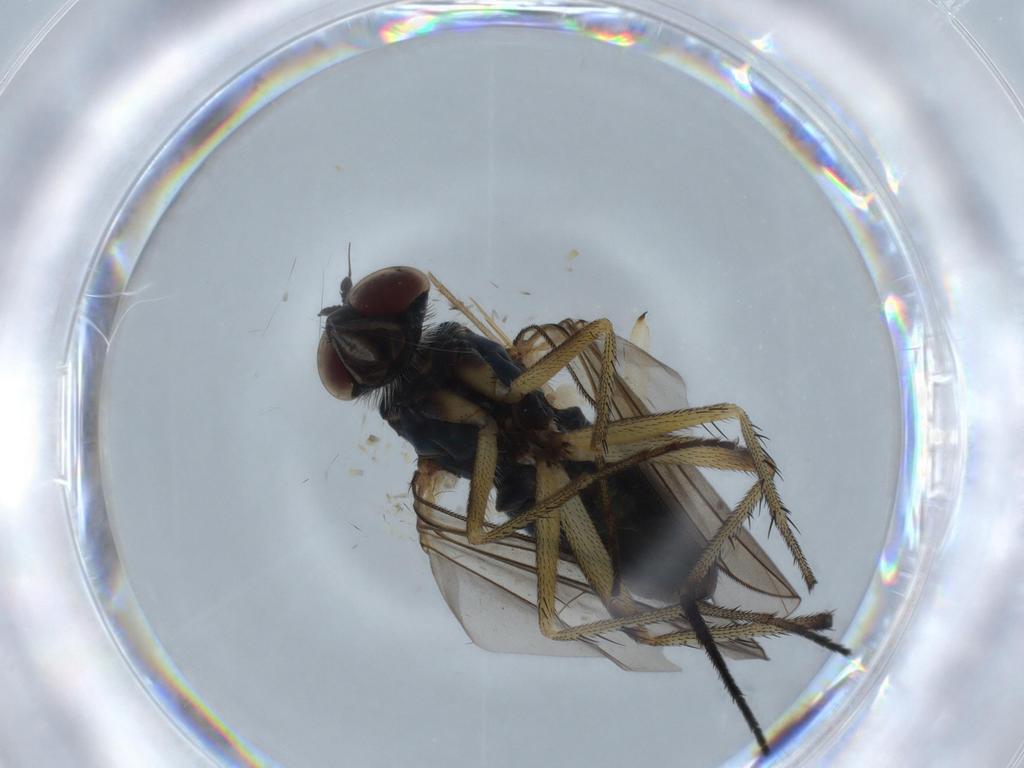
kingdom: Animalia
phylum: Arthropoda
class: Insecta
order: Diptera
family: Dolichopodidae
